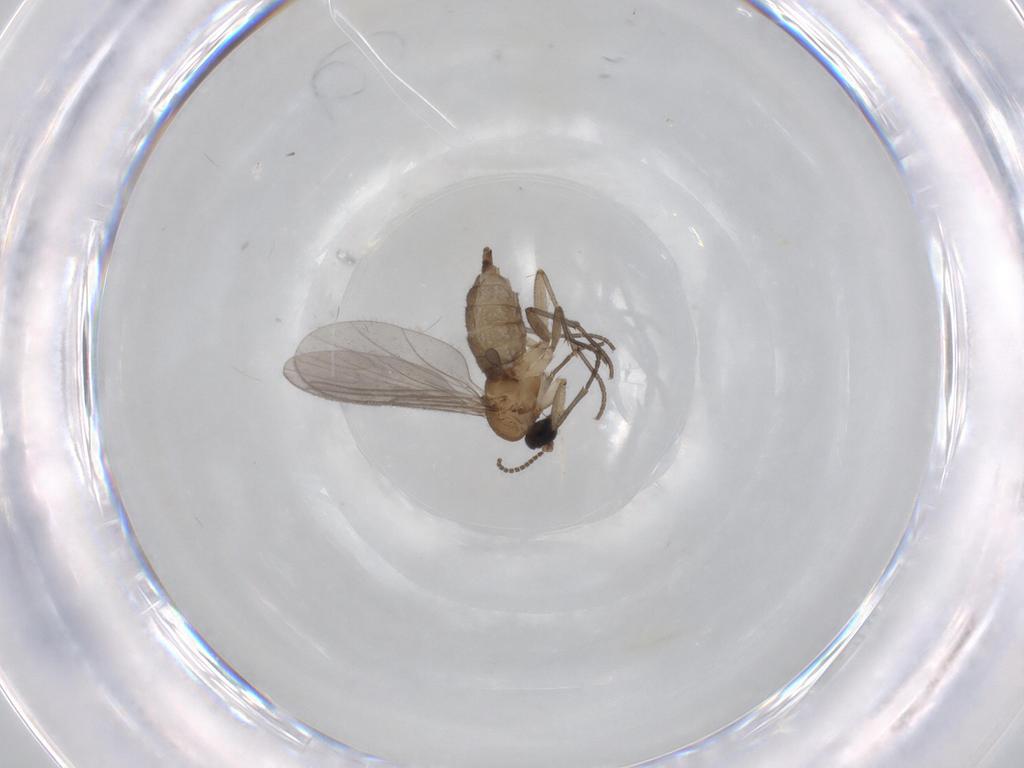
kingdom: Animalia
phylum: Arthropoda
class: Insecta
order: Diptera
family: Sciaridae
